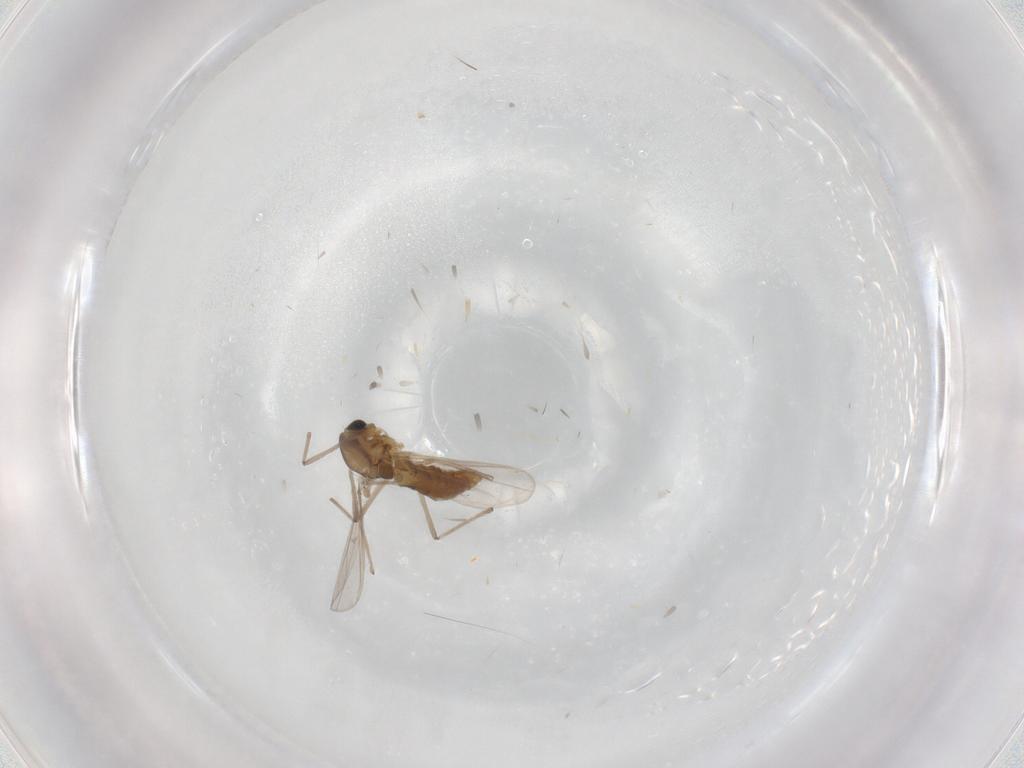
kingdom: Animalia
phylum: Arthropoda
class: Insecta
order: Diptera
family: Chironomidae
